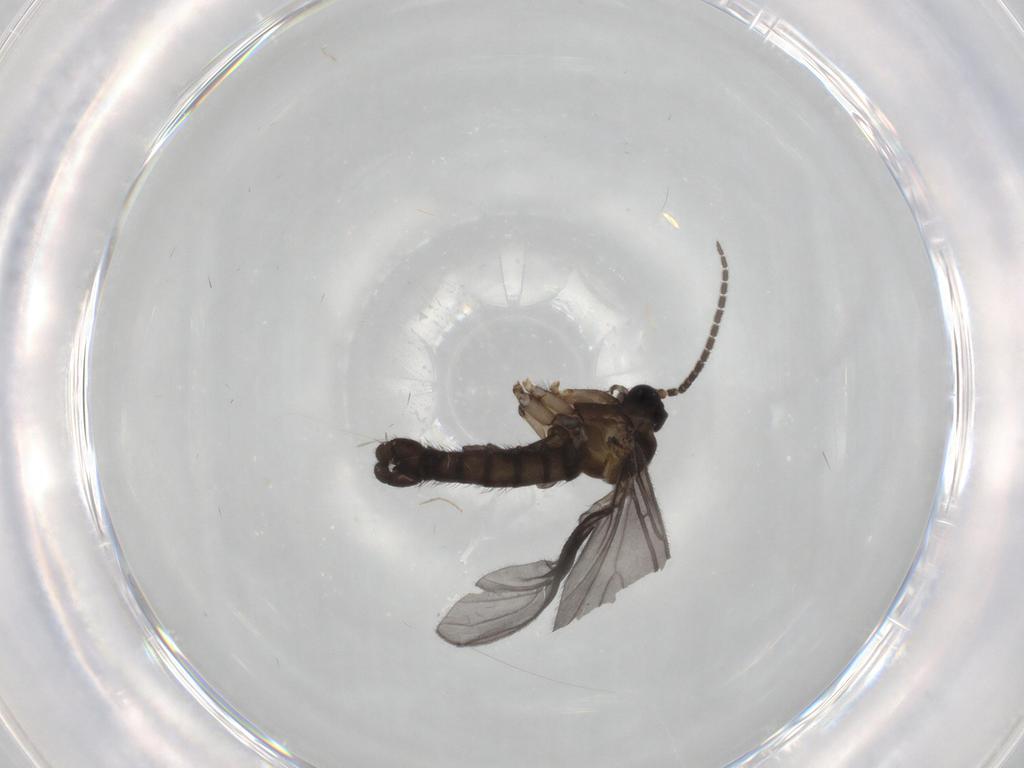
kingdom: Animalia
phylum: Arthropoda
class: Insecta
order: Diptera
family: Sciaridae
